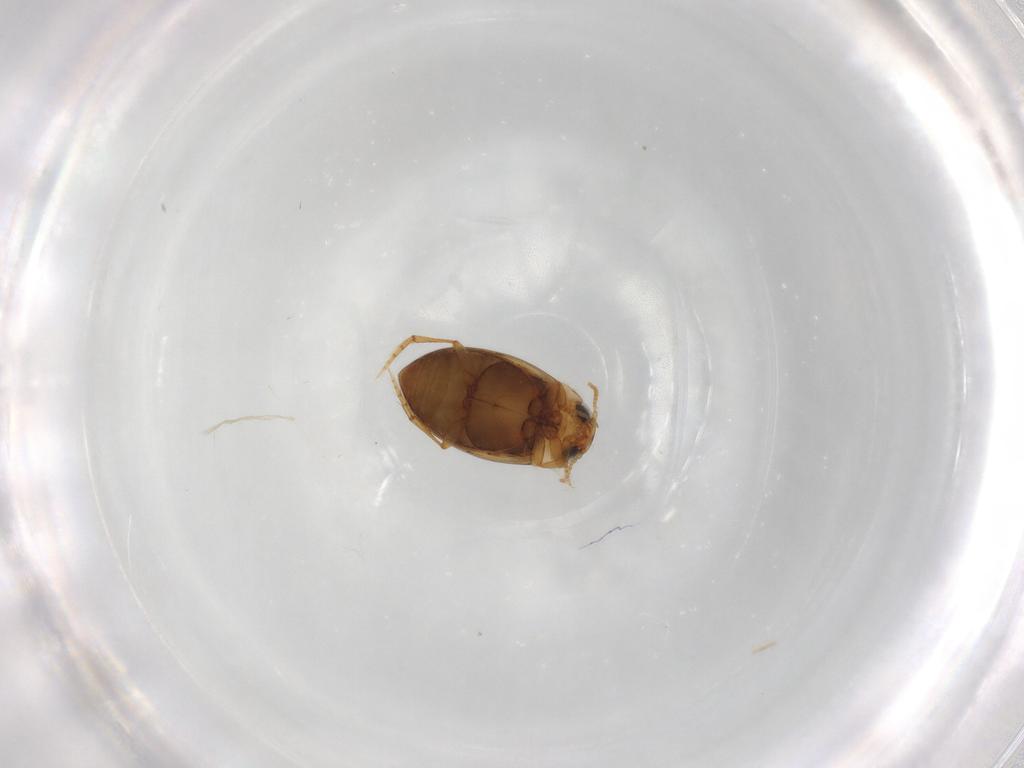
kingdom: Animalia
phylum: Arthropoda
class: Insecta
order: Coleoptera
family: Dytiscidae
